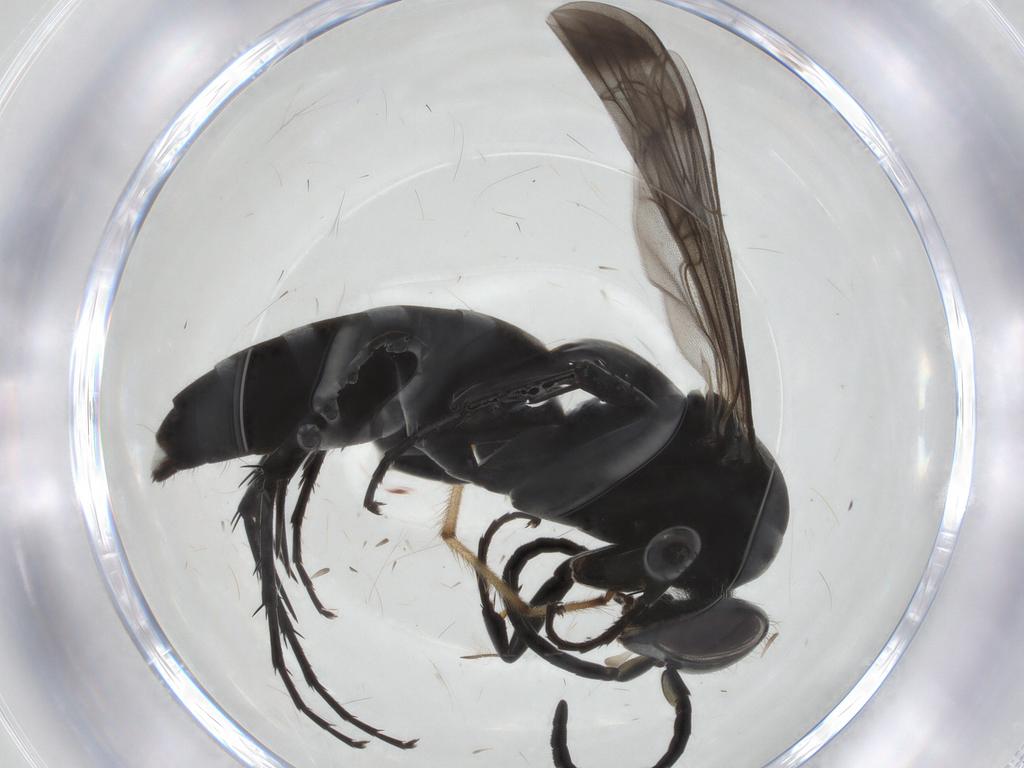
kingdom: Animalia
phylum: Arthropoda
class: Insecta
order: Hymenoptera
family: Pompilidae
